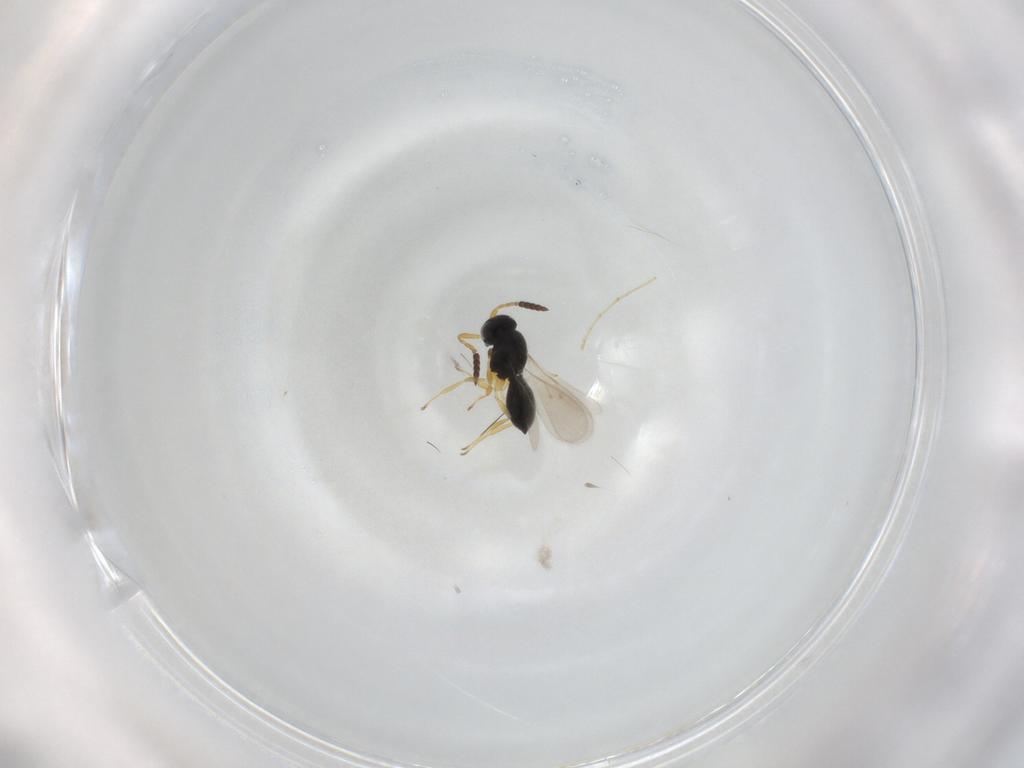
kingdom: Animalia
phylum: Arthropoda
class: Insecta
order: Hymenoptera
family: Scelionidae
